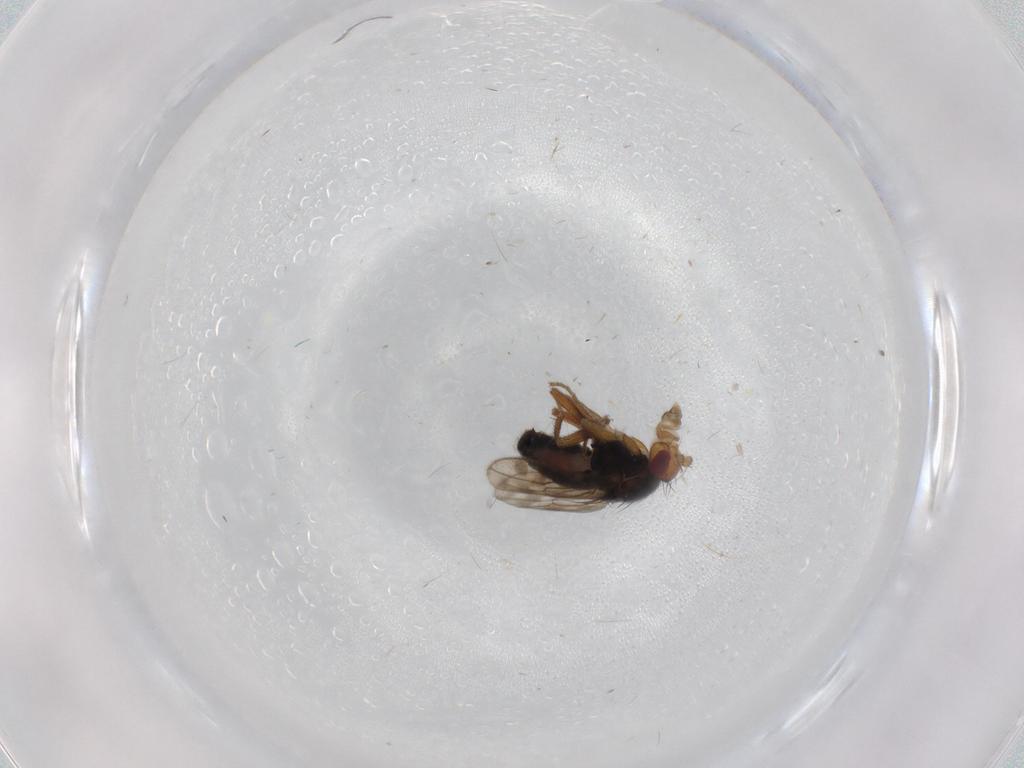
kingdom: Animalia
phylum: Arthropoda
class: Insecta
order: Diptera
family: Sphaeroceridae
